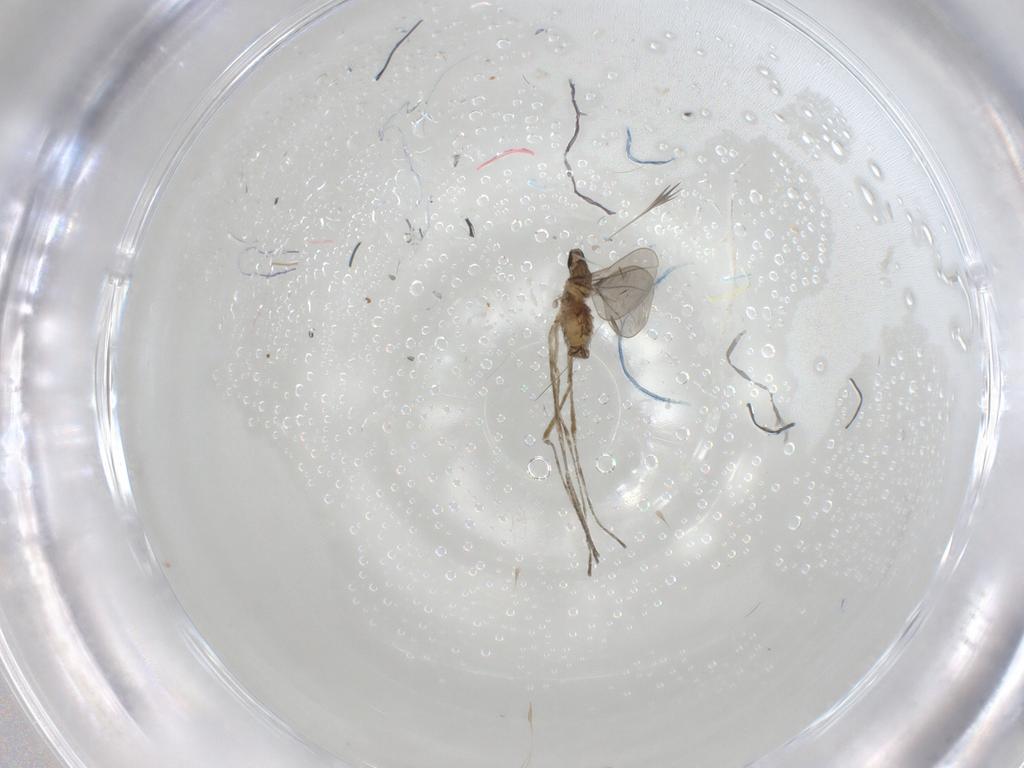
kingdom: Animalia
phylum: Arthropoda
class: Insecta
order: Diptera
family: Cecidomyiidae
